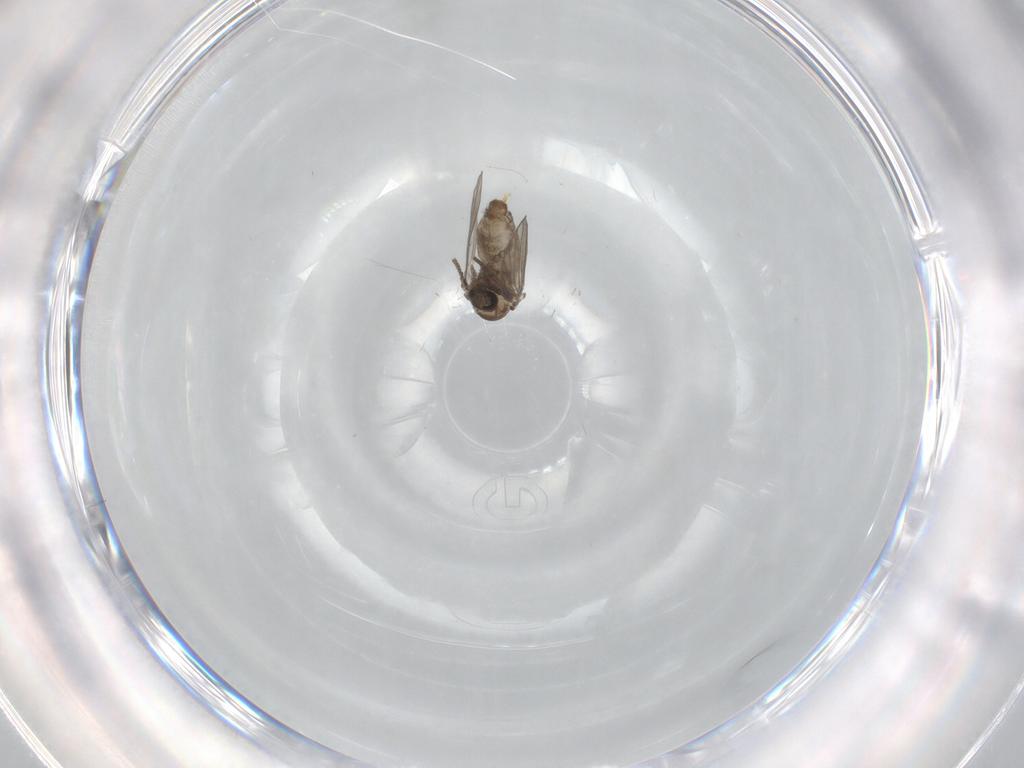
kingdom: Animalia
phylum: Arthropoda
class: Insecta
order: Diptera
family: Psychodidae
